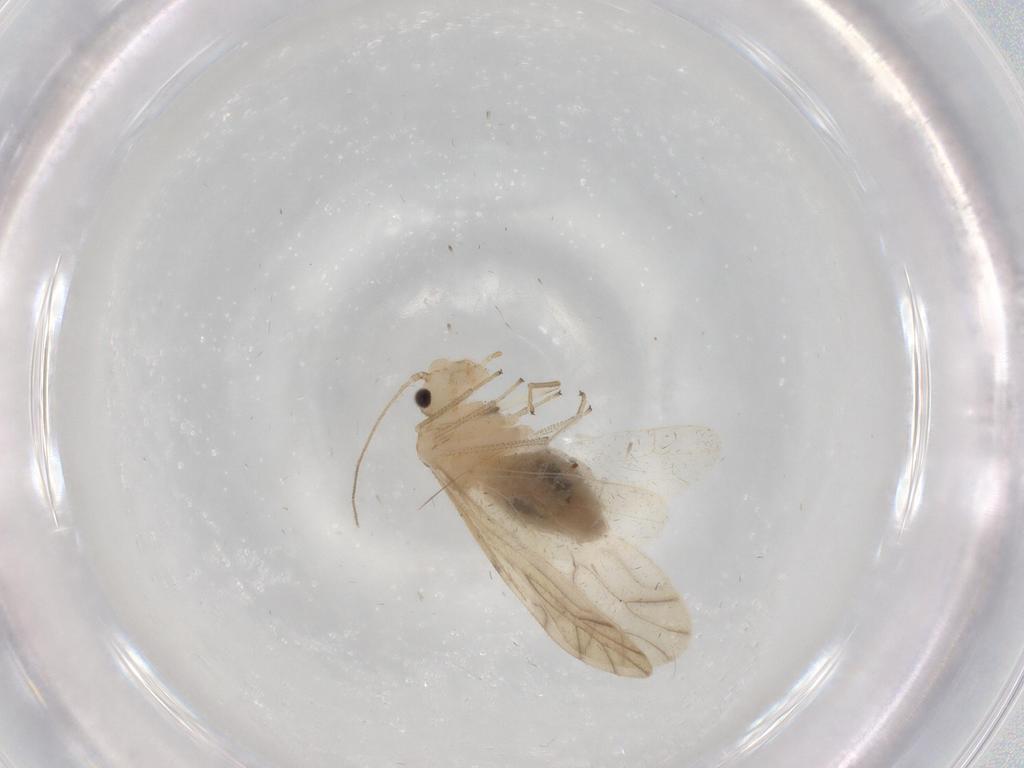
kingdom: Animalia
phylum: Arthropoda
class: Insecta
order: Psocodea
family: Caeciliusidae
